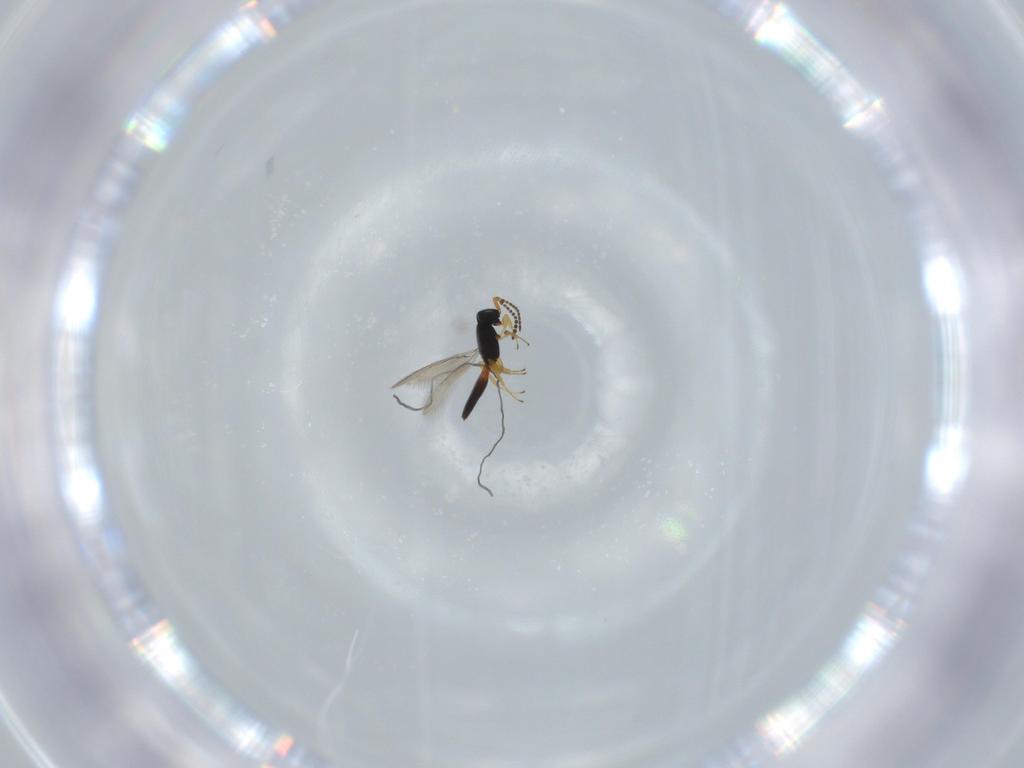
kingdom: Animalia
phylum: Arthropoda
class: Insecta
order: Hymenoptera
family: Scelionidae
